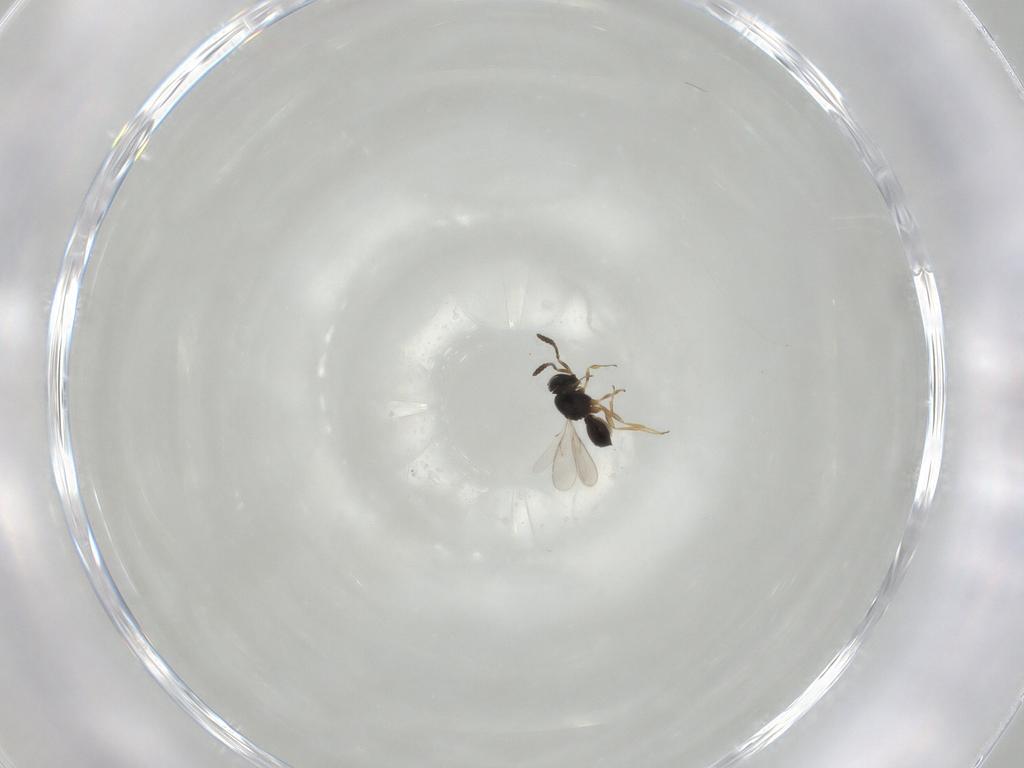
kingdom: Animalia
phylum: Arthropoda
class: Insecta
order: Hymenoptera
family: Scelionidae
